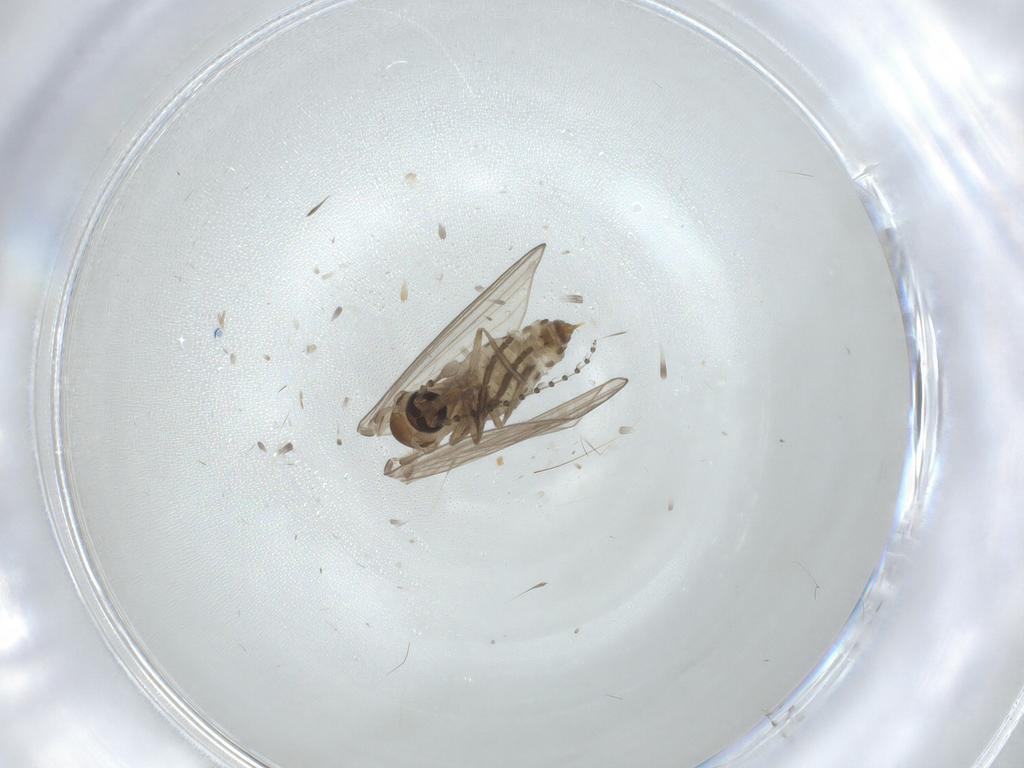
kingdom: Animalia
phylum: Arthropoda
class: Insecta
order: Diptera
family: Psychodidae
